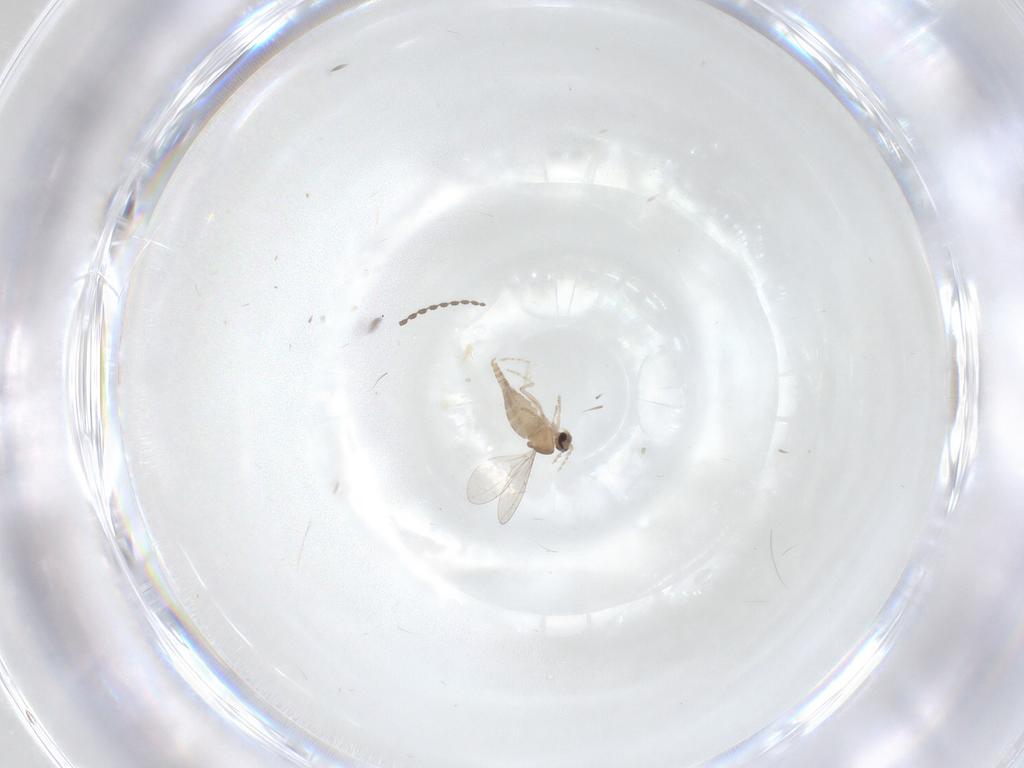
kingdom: Animalia
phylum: Arthropoda
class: Insecta
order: Diptera
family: Cecidomyiidae
